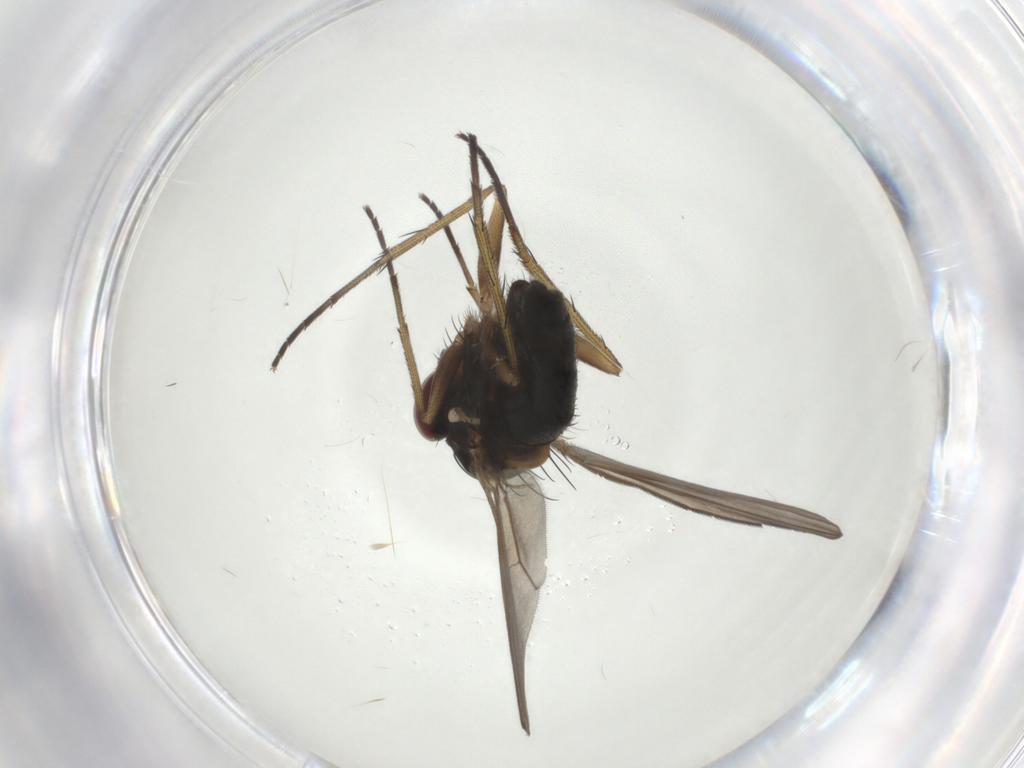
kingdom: Animalia
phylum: Arthropoda
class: Insecta
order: Diptera
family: Dolichopodidae
